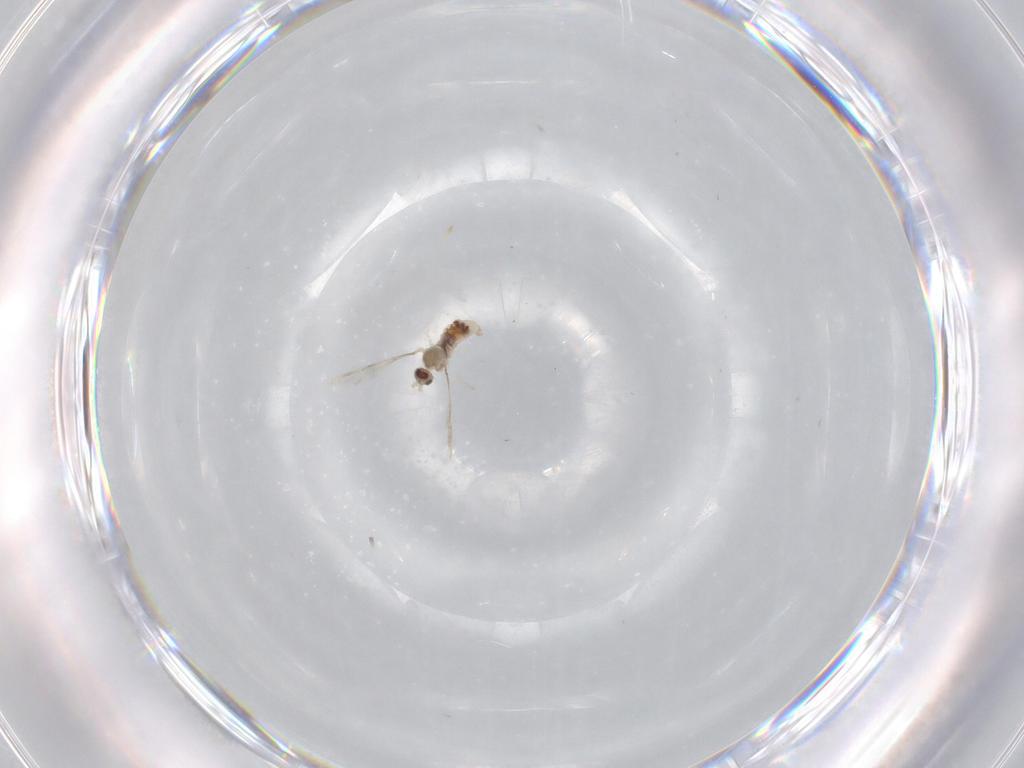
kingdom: Animalia
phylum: Arthropoda
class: Insecta
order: Diptera
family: Cecidomyiidae
